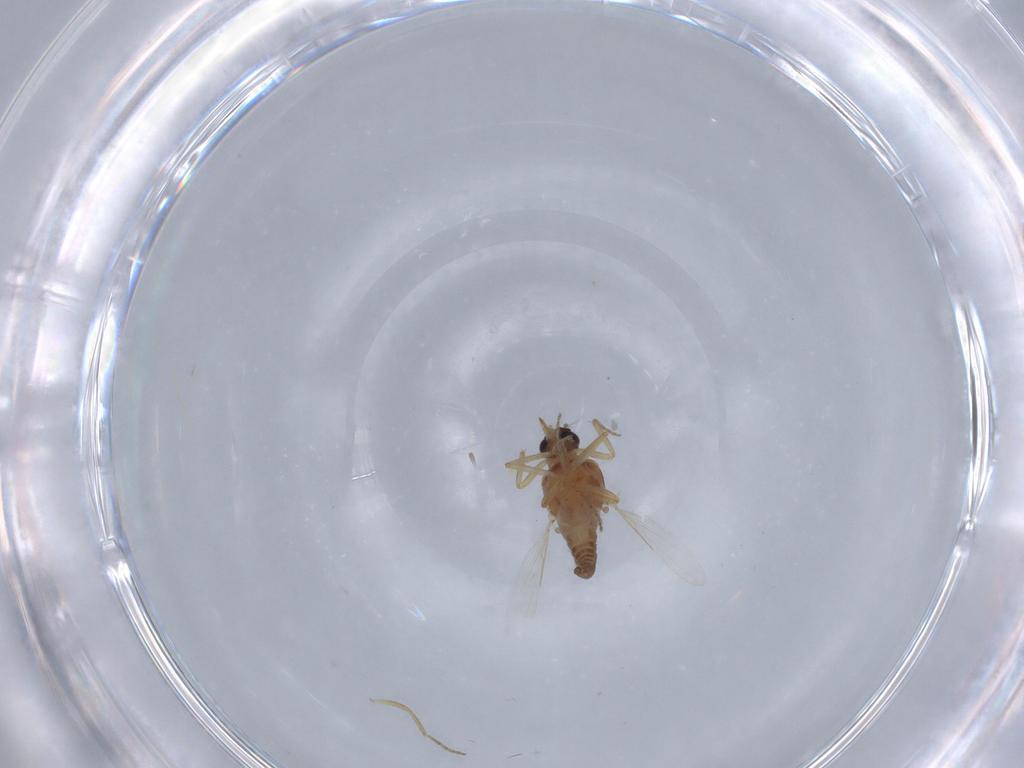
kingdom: Animalia
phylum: Arthropoda
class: Insecta
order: Diptera
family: Ceratopogonidae
